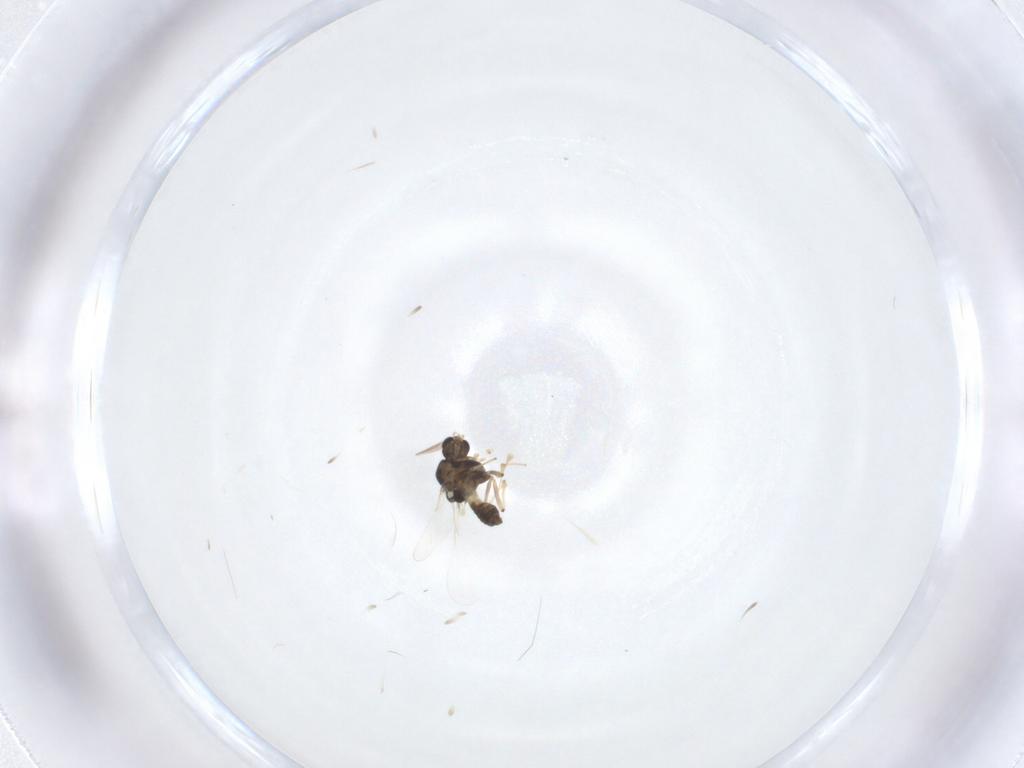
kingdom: Animalia
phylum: Arthropoda
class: Insecta
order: Diptera
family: Chironomidae
